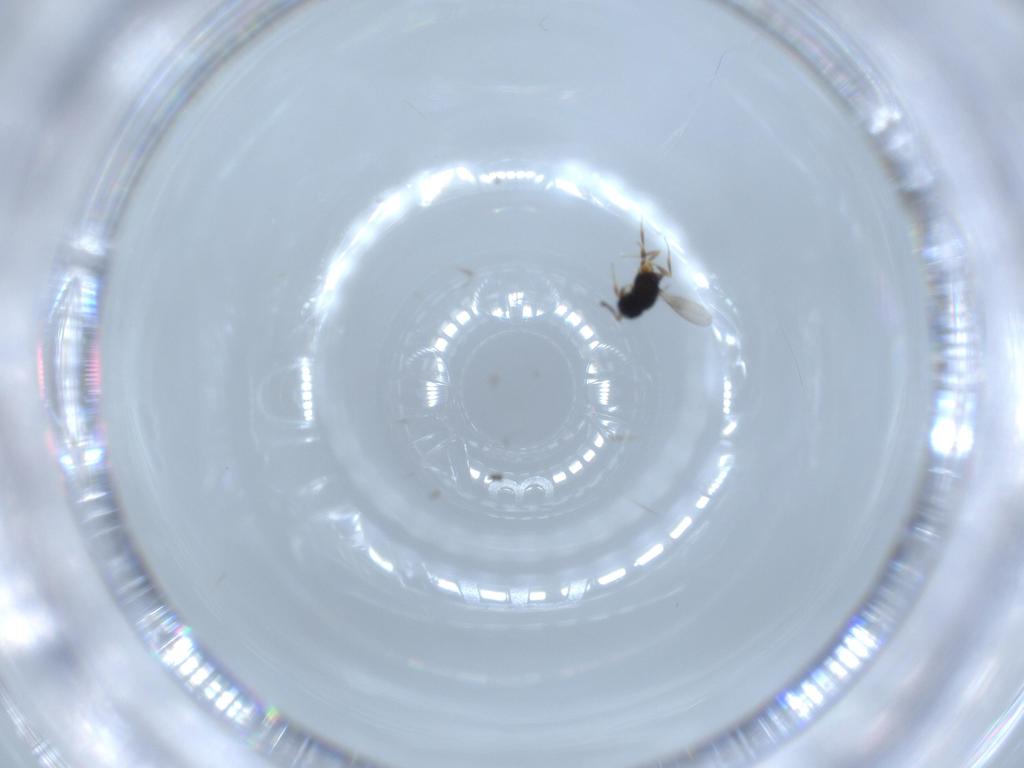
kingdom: Animalia
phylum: Arthropoda
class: Insecta
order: Hymenoptera
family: Scelionidae
